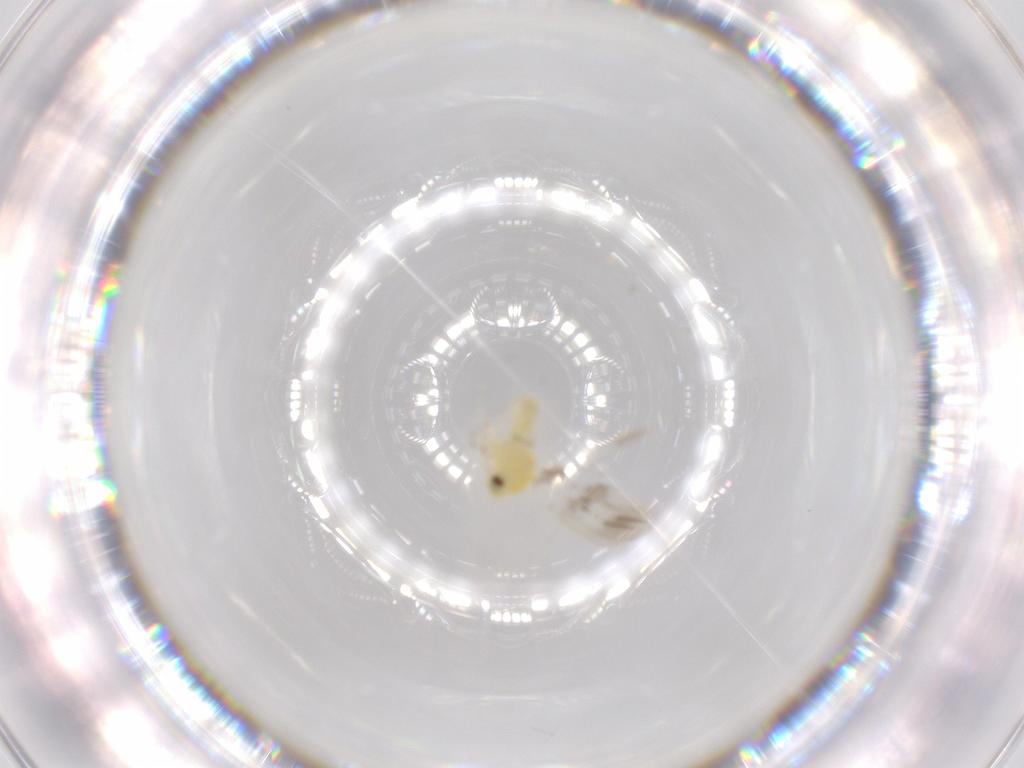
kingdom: Animalia
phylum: Arthropoda
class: Insecta
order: Hemiptera
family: Aleyrodidae
